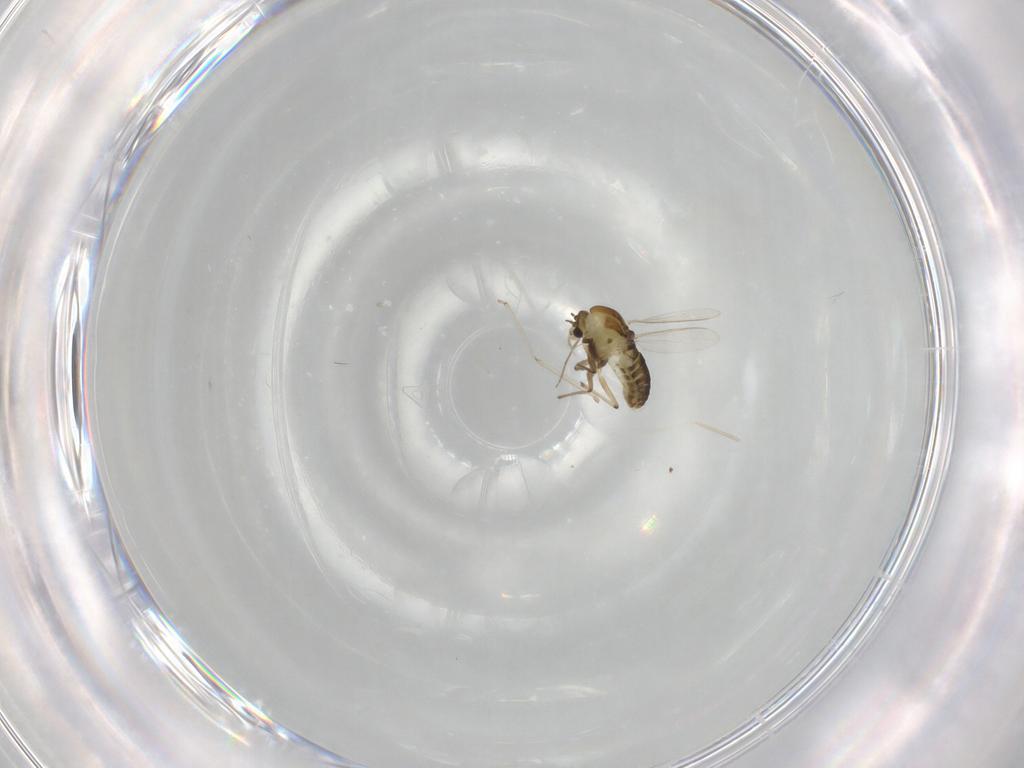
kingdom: Animalia
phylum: Arthropoda
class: Insecta
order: Diptera
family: Chironomidae
